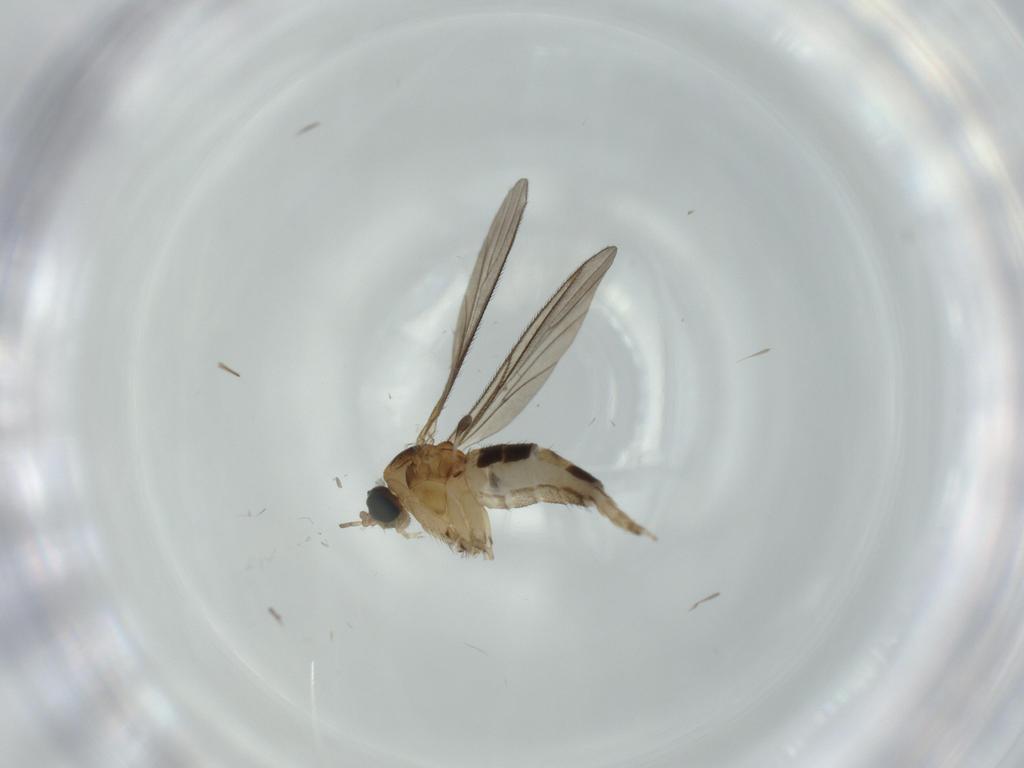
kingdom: Animalia
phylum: Arthropoda
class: Insecta
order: Diptera
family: Sciaridae
